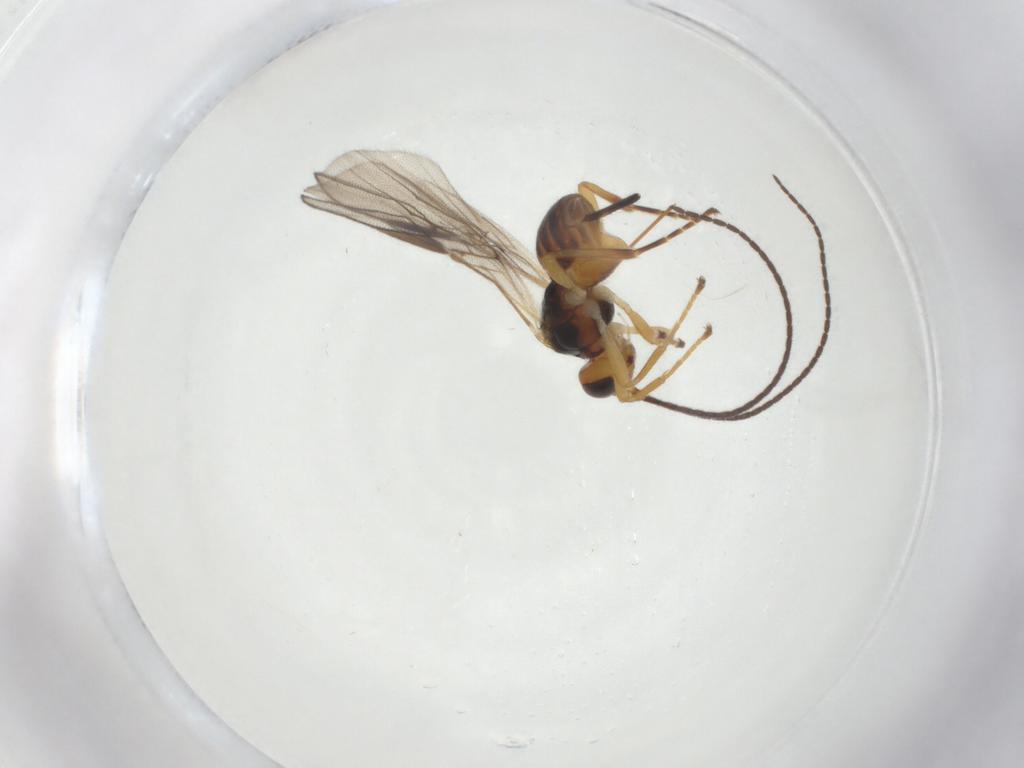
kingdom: Animalia
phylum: Arthropoda
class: Insecta
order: Hymenoptera
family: Braconidae
